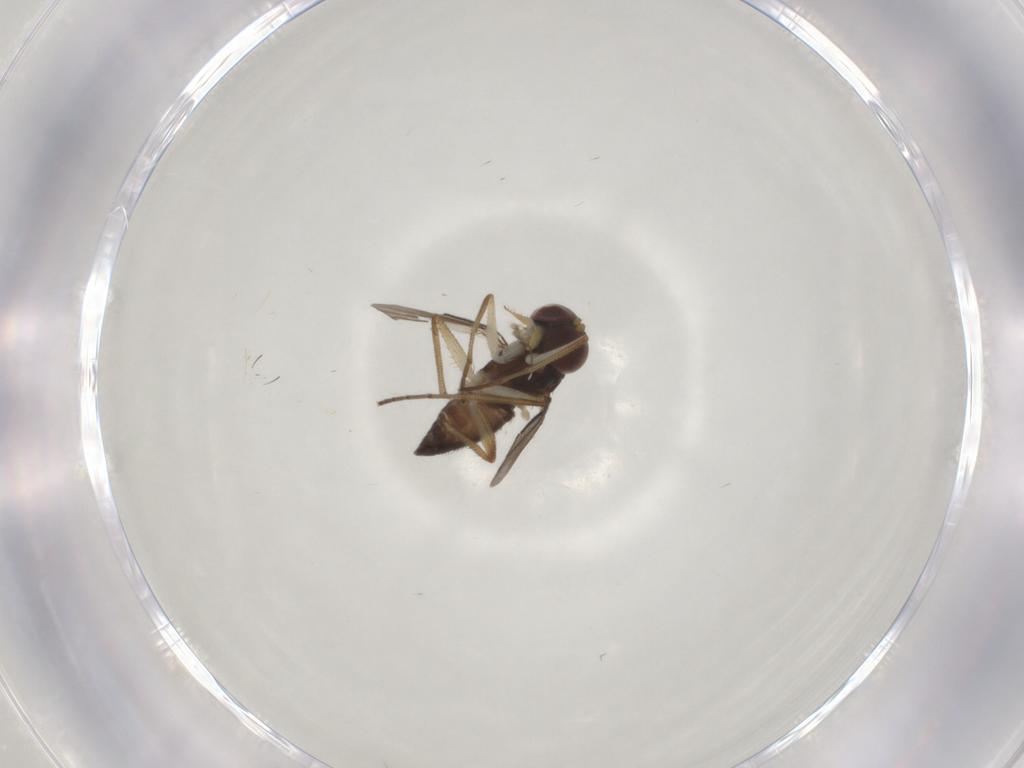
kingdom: Animalia
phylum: Arthropoda
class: Insecta
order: Diptera
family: Dolichopodidae
